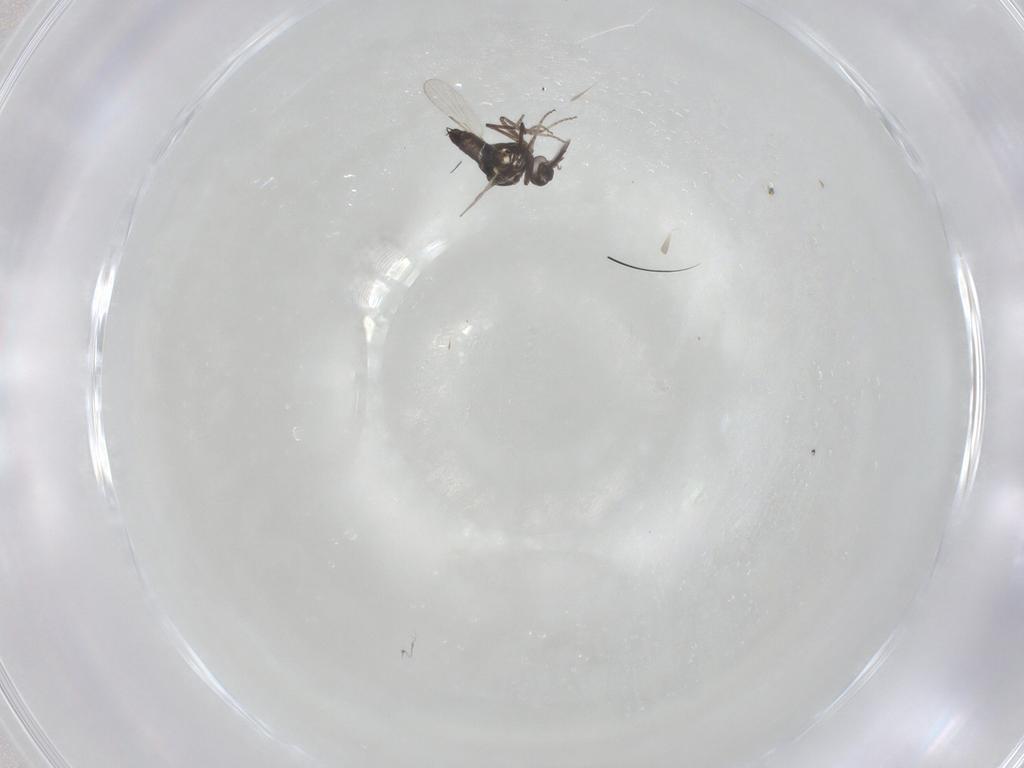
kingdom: Animalia
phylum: Arthropoda
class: Insecta
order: Diptera
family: Ceratopogonidae
